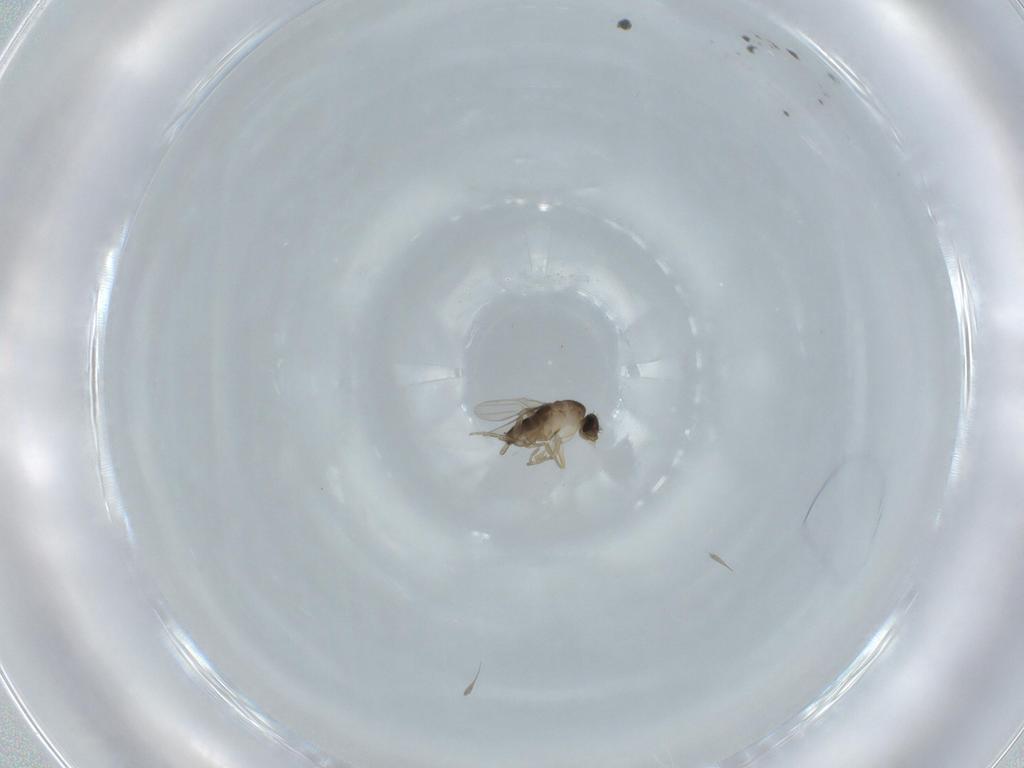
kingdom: Animalia
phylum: Arthropoda
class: Insecta
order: Diptera
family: Phoridae
